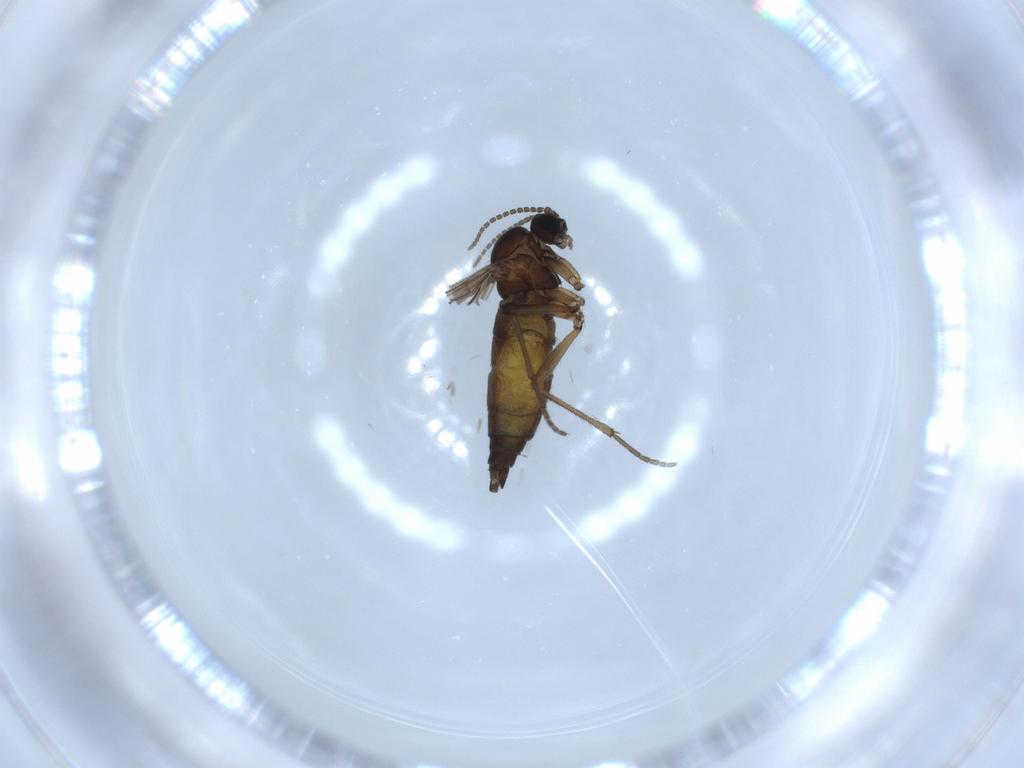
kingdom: Animalia
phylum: Arthropoda
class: Insecta
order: Diptera
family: Sciaridae
